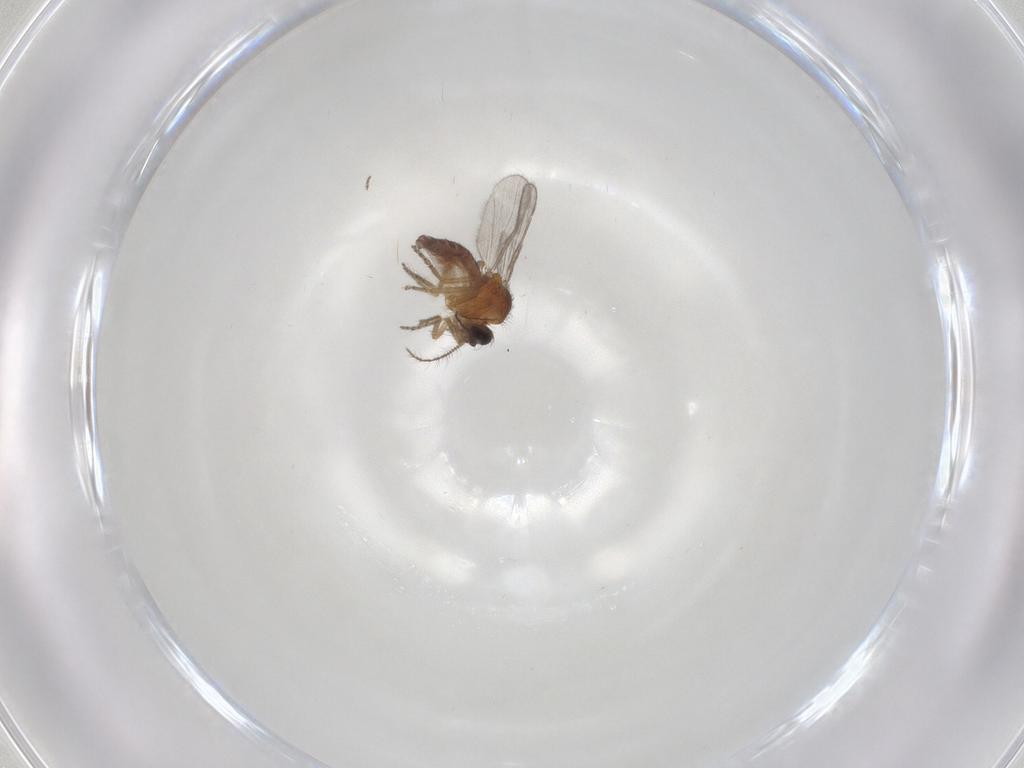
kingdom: Animalia
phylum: Arthropoda
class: Insecta
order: Diptera
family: Ceratopogonidae
